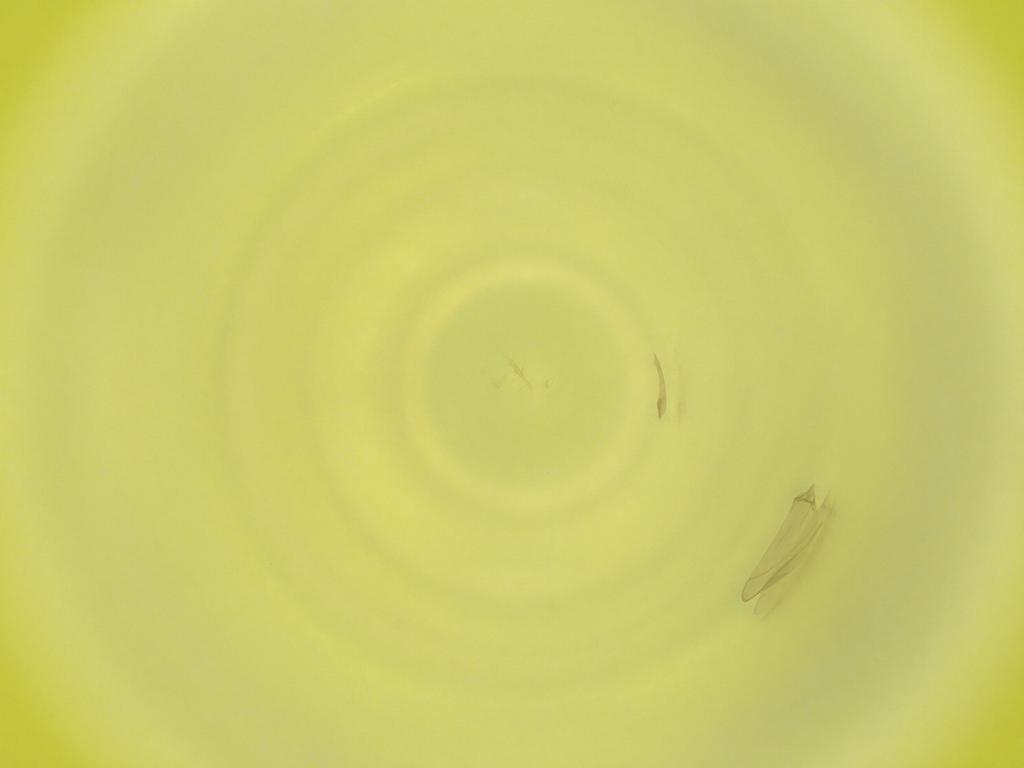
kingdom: Animalia
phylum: Arthropoda
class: Insecta
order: Diptera
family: Cecidomyiidae
